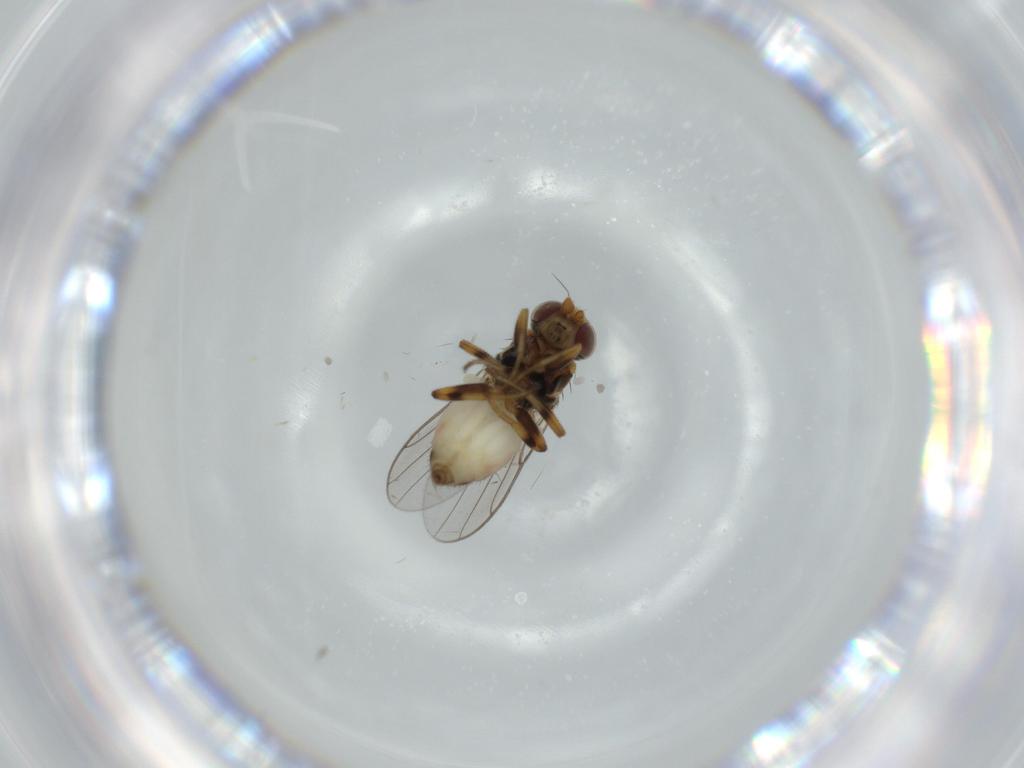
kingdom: Animalia
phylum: Arthropoda
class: Insecta
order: Diptera
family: Chloropidae
